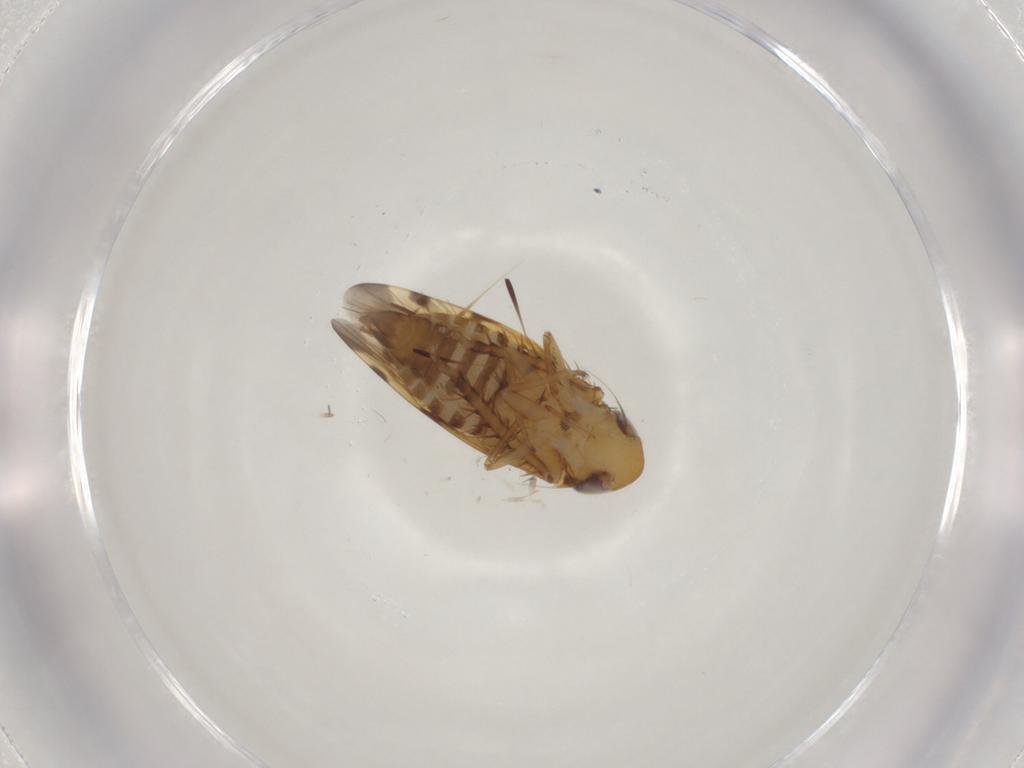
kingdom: Animalia
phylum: Arthropoda
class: Insecta
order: Hemiptera
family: Cicadellidae
